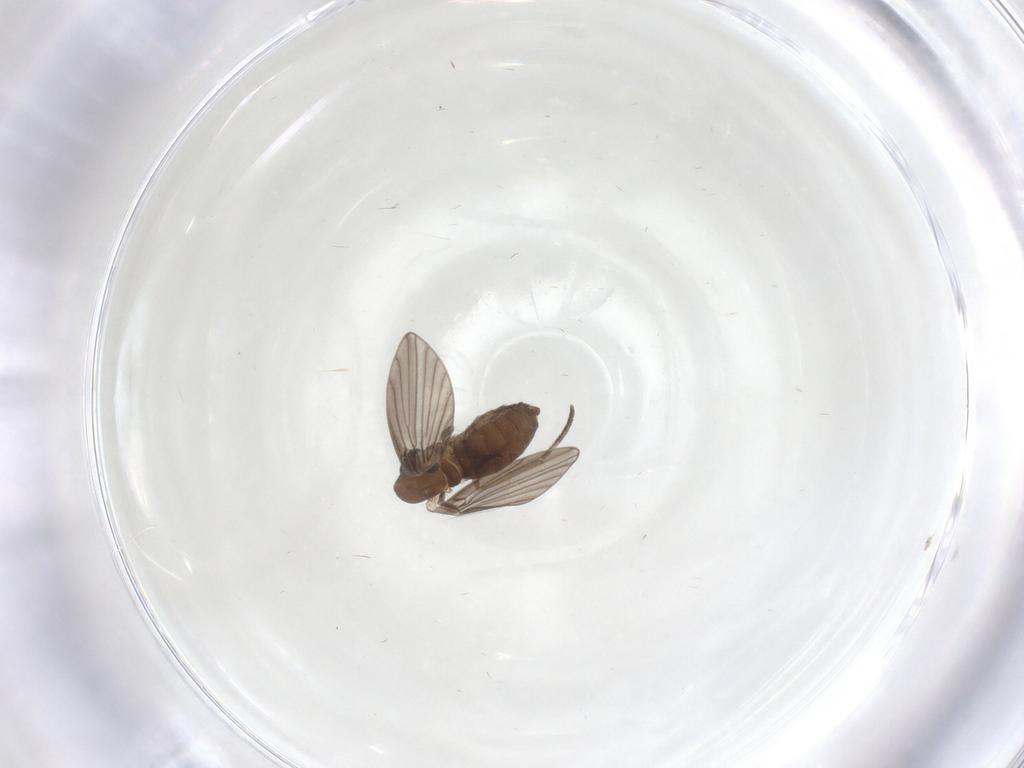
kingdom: Animalia
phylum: Arthropoda
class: Insecta
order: Diptera
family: Psychodidae
